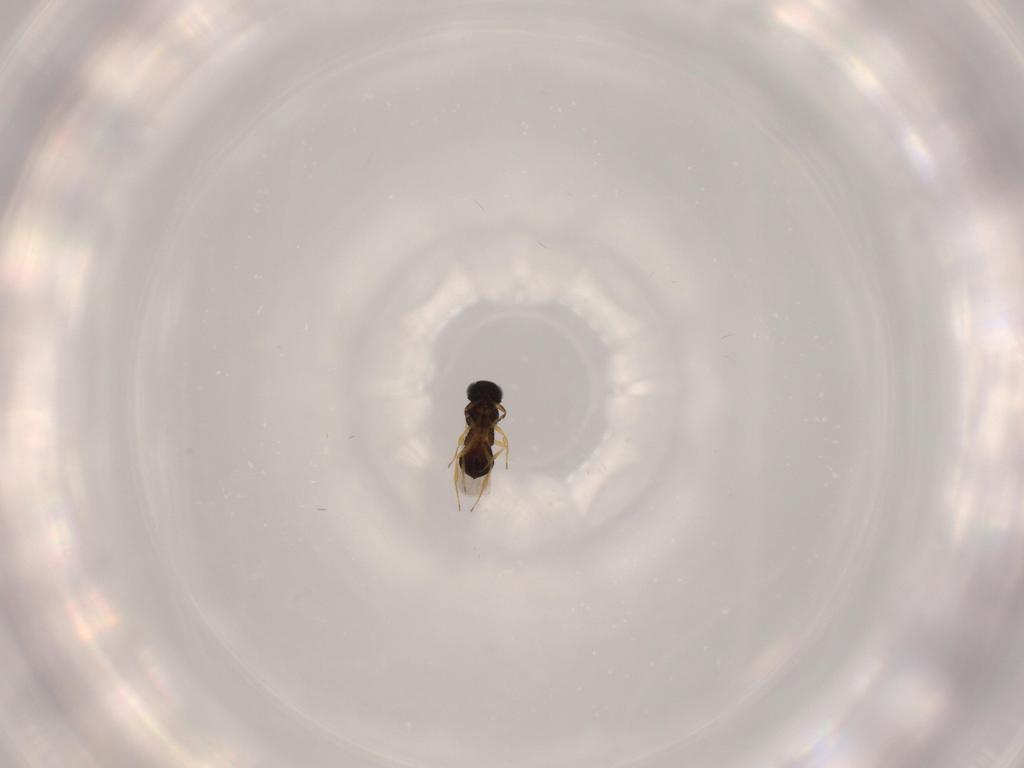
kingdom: Animalia
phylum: Arthropoda
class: Insecta
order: Hymenoptera
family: Scelionidae
